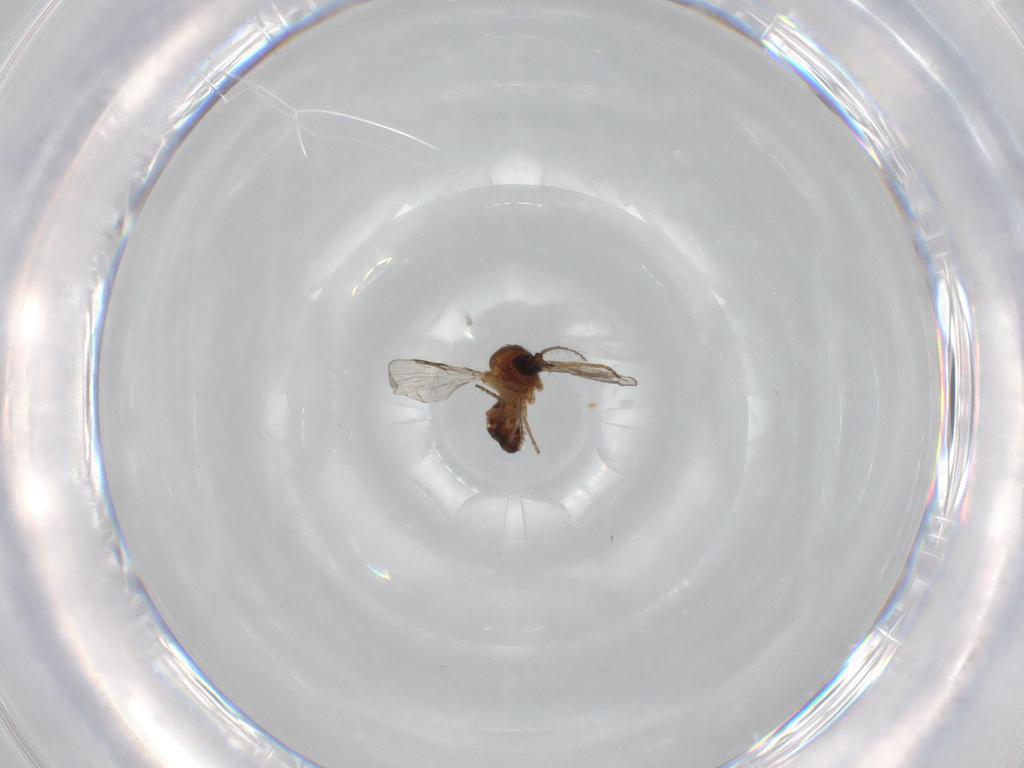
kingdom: Animalia
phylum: Arthropoda
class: Insecta
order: Diptera
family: Ceratopogonidae
